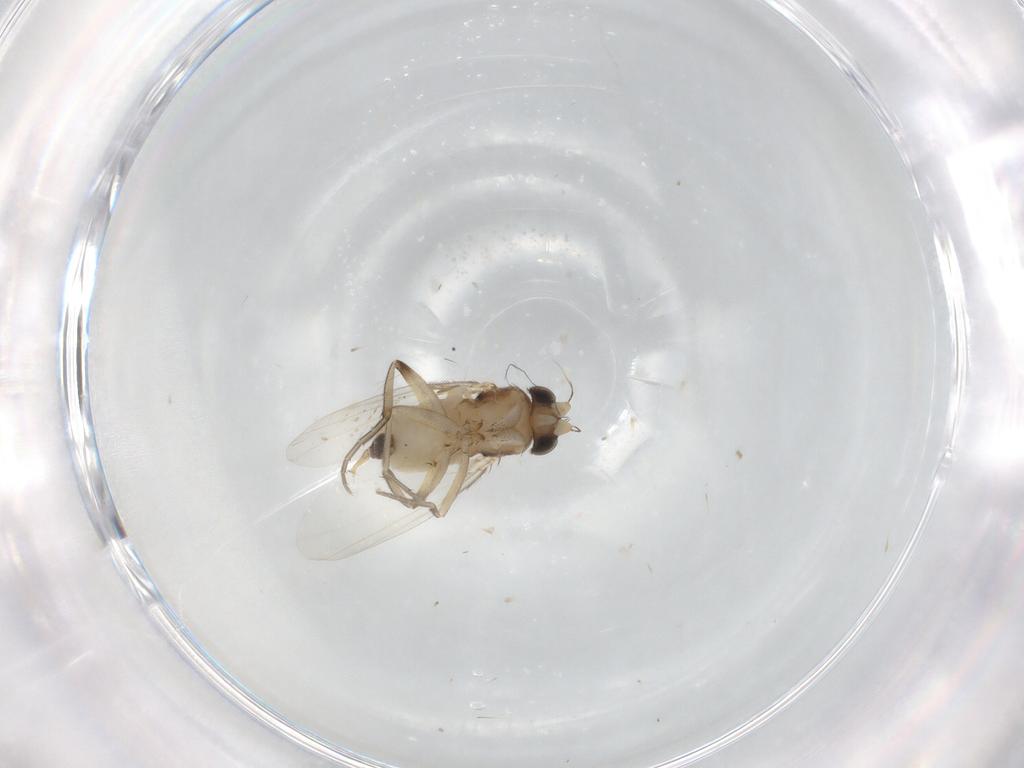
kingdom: Animalia
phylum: Arthropoda
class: Insecta
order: Diptera
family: Phoridae
